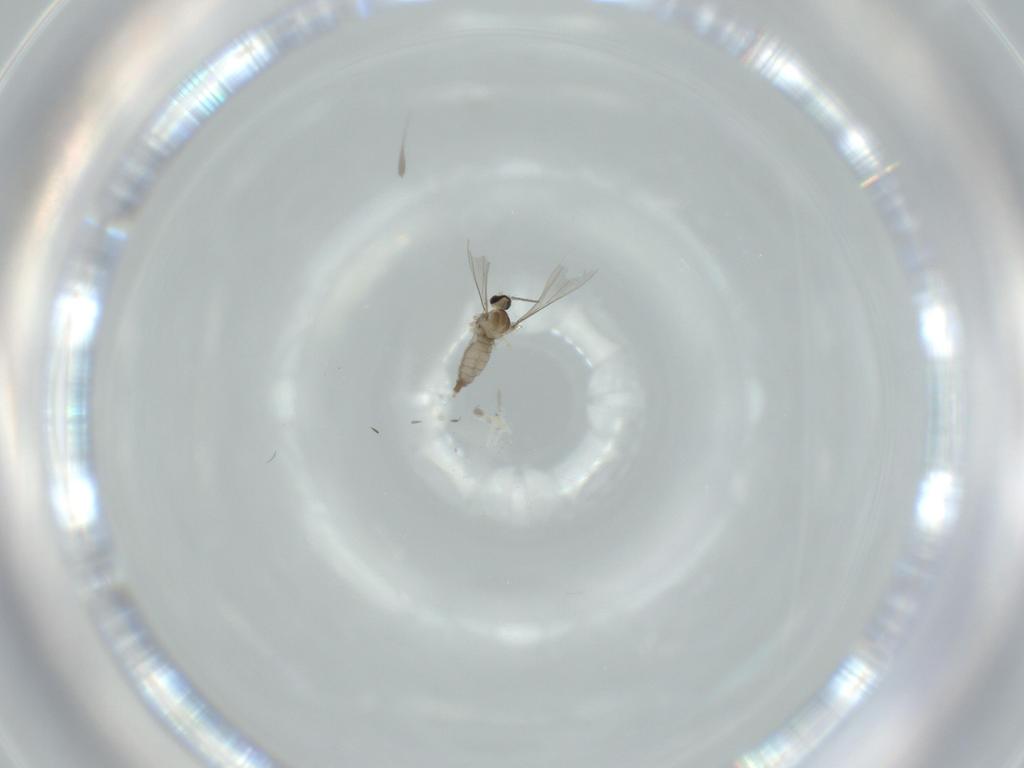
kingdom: Animalia
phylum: Arthropoda
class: Insecta
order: Diptera
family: Cecidomyiidae
